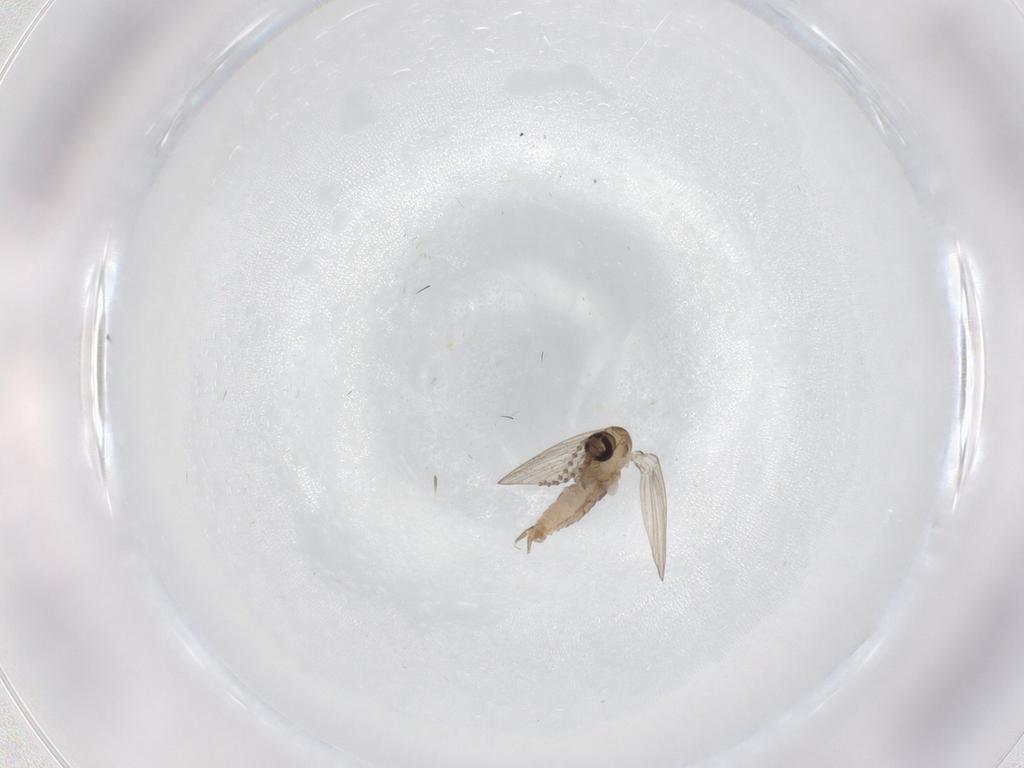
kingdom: Animalia
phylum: Arthropoda
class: Insecta
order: Diptera
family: Psychodidae
